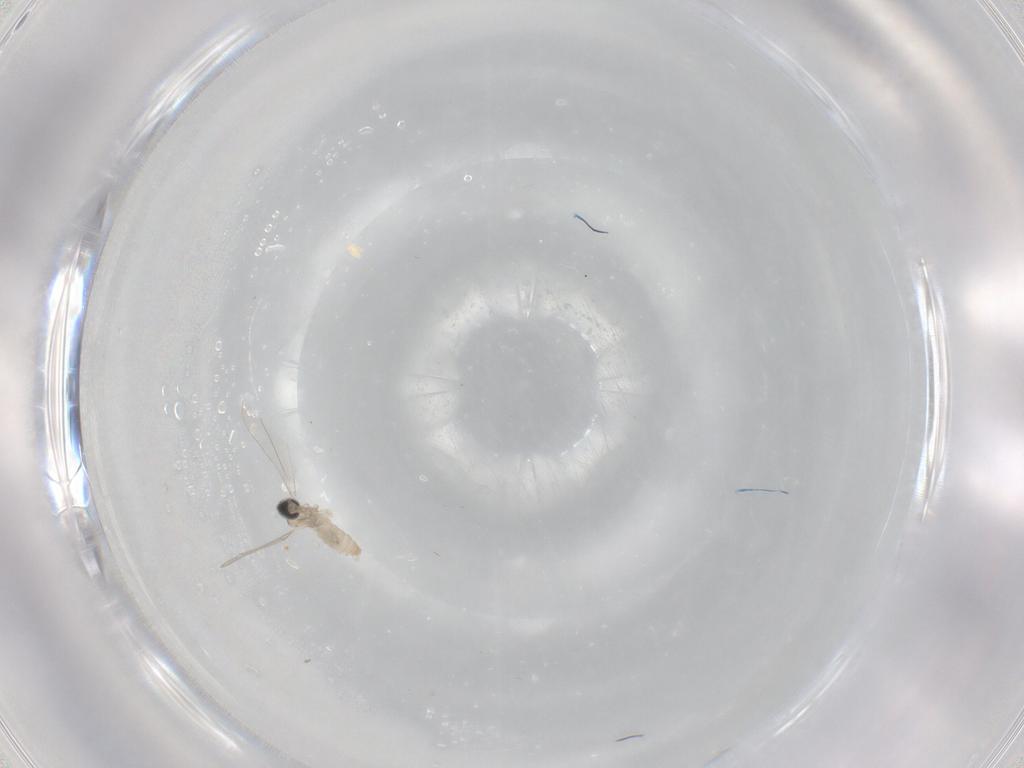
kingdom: Animalia
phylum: Arthropoda
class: Insecta
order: Diptera
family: Cecidomyiidae
